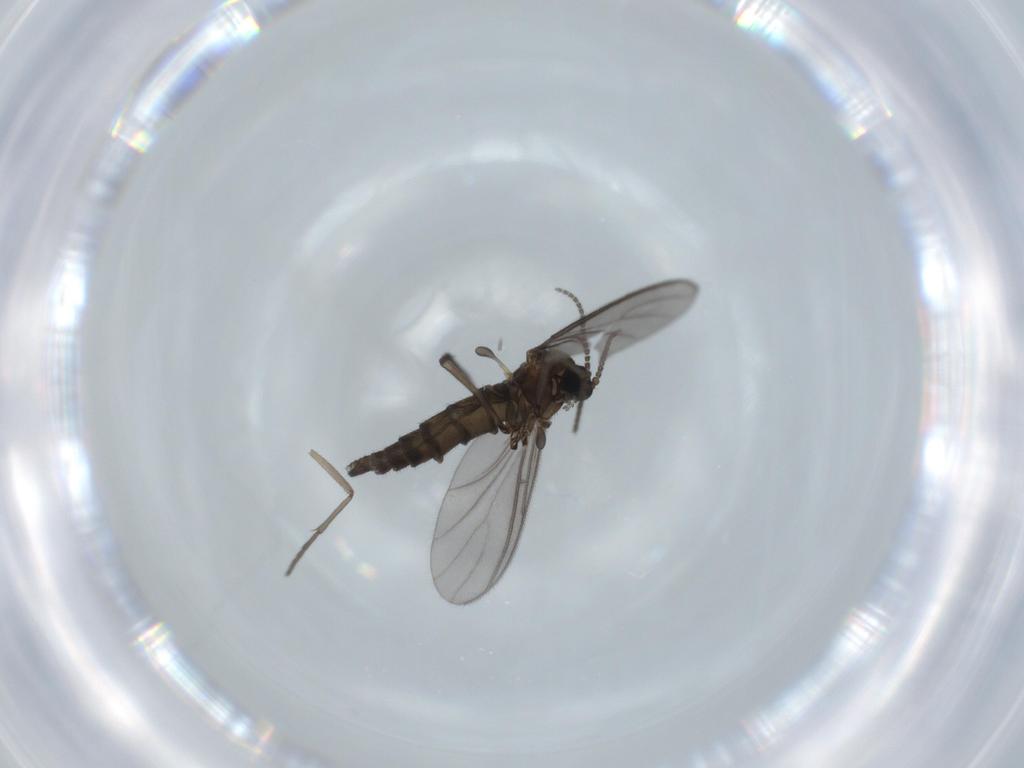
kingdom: Animalia
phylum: Arthropoda
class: Insecta
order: Diptera
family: Sciaridae
